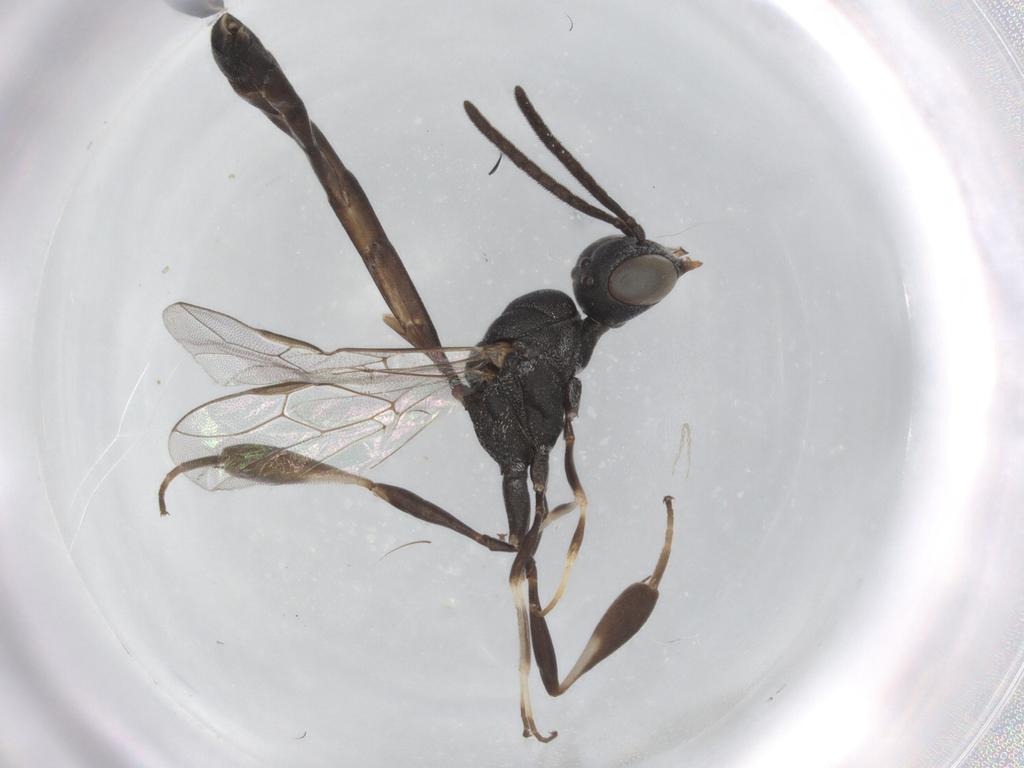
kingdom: Animalia
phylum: Arthropoda
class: Insecta
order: Hymenoptera
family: Gasteruptiidae
